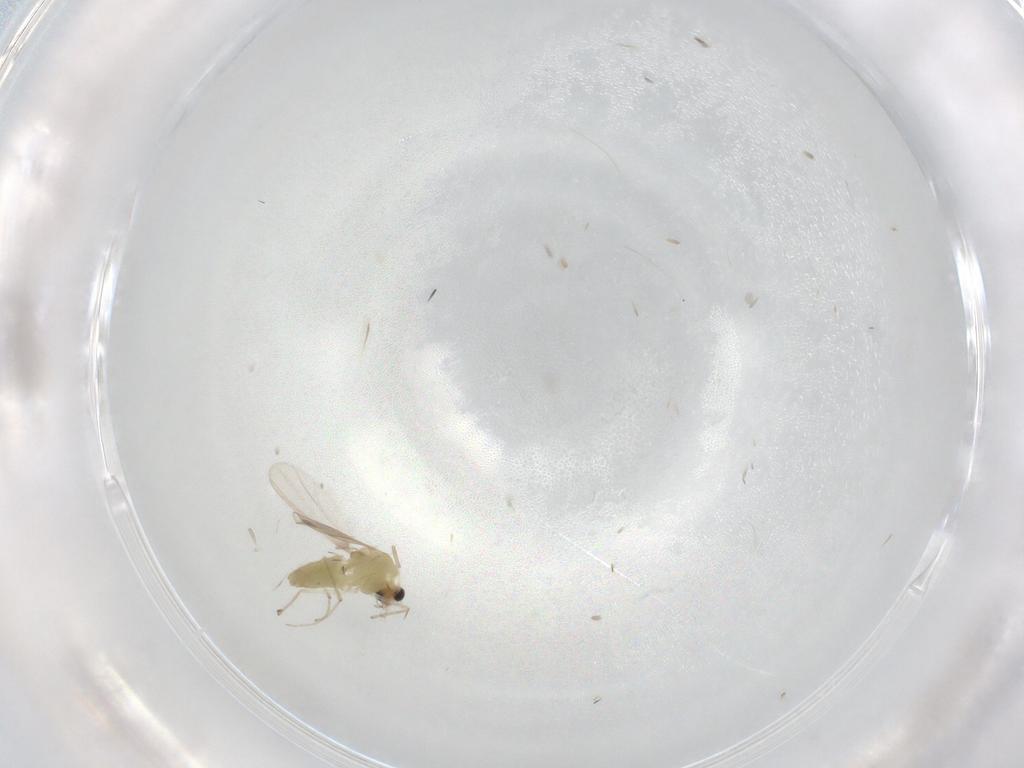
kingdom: Animalia
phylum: Arthropoda
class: Insecta
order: Diptera
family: Chironomidae
